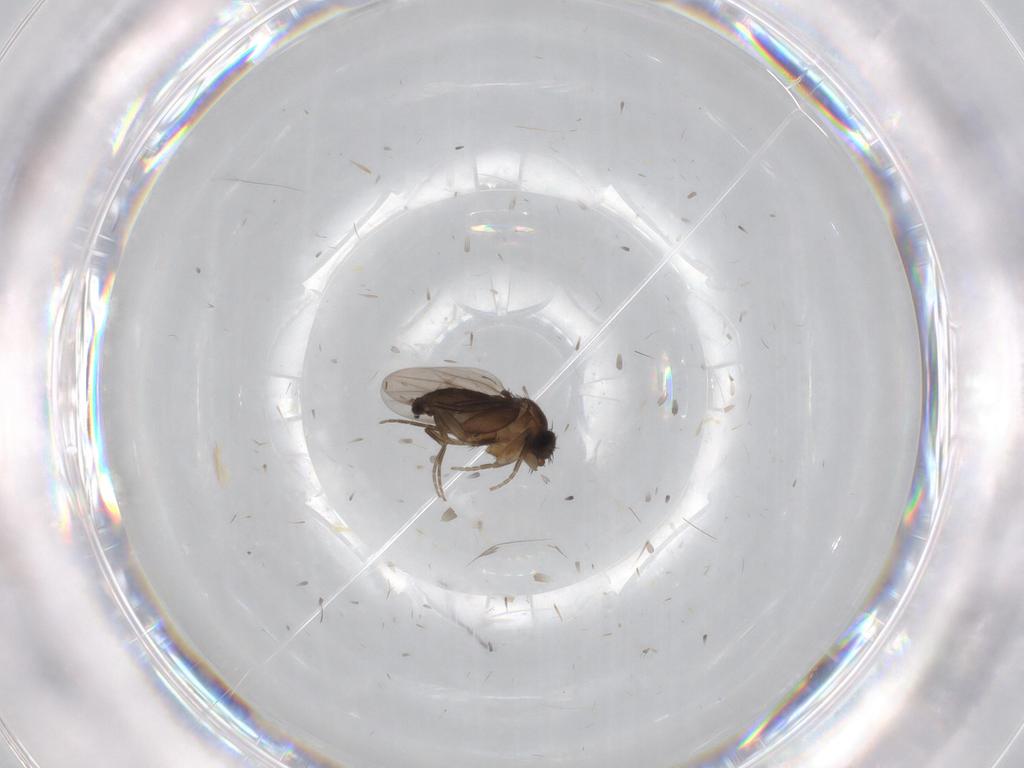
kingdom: Animalia
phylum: Arthropoda
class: Insecta
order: Diptera
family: Phoridae
